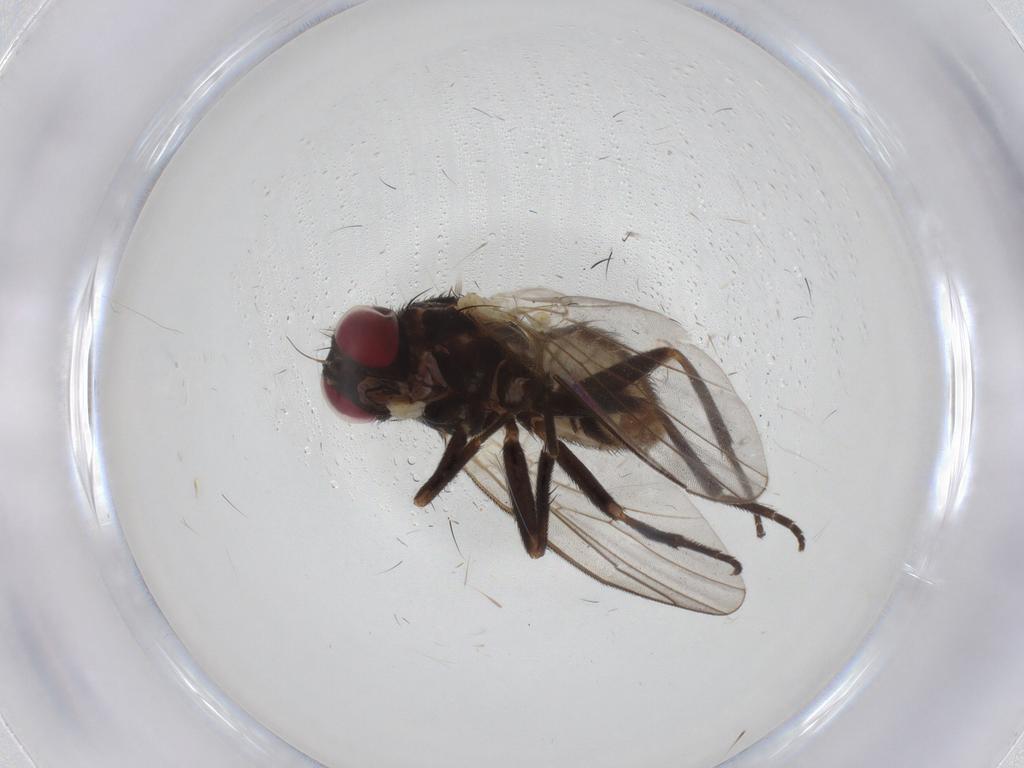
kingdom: Animalia
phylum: Arthropoda
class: Insecta
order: Diptera
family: Agromyzidae
